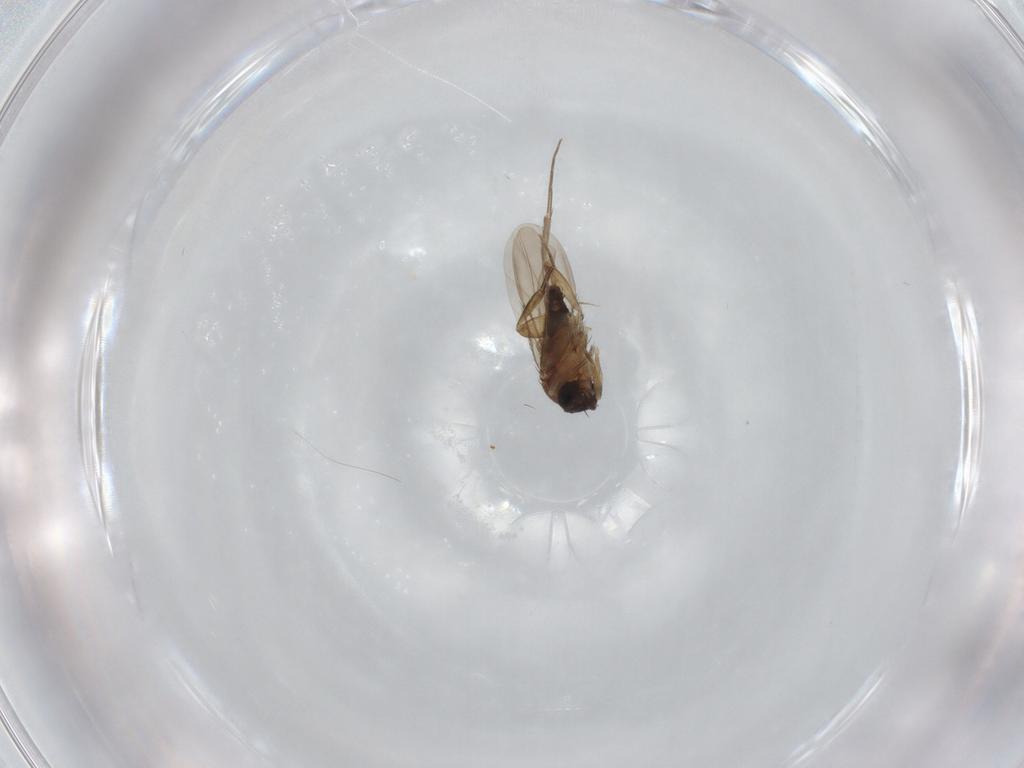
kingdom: Animalia
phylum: Arthropoda
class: Insecta
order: Diptera
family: Phoridae
